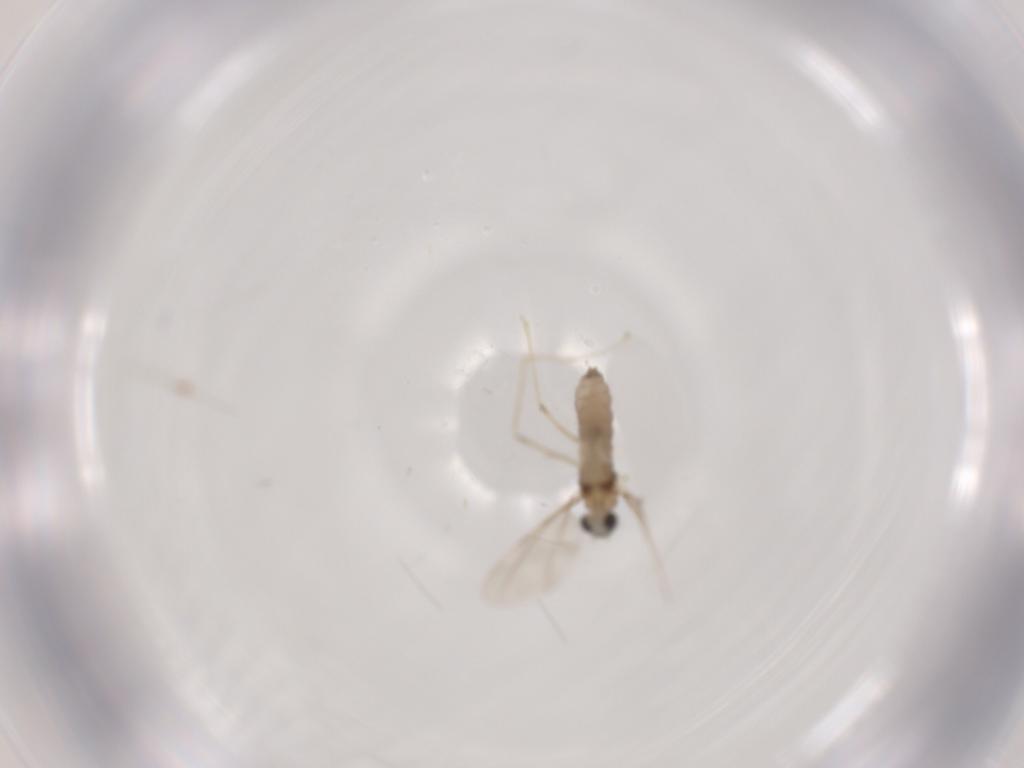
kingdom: Animalia
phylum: Arthropoda
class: Insecta
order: Diptera
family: Cecidomyiidae
